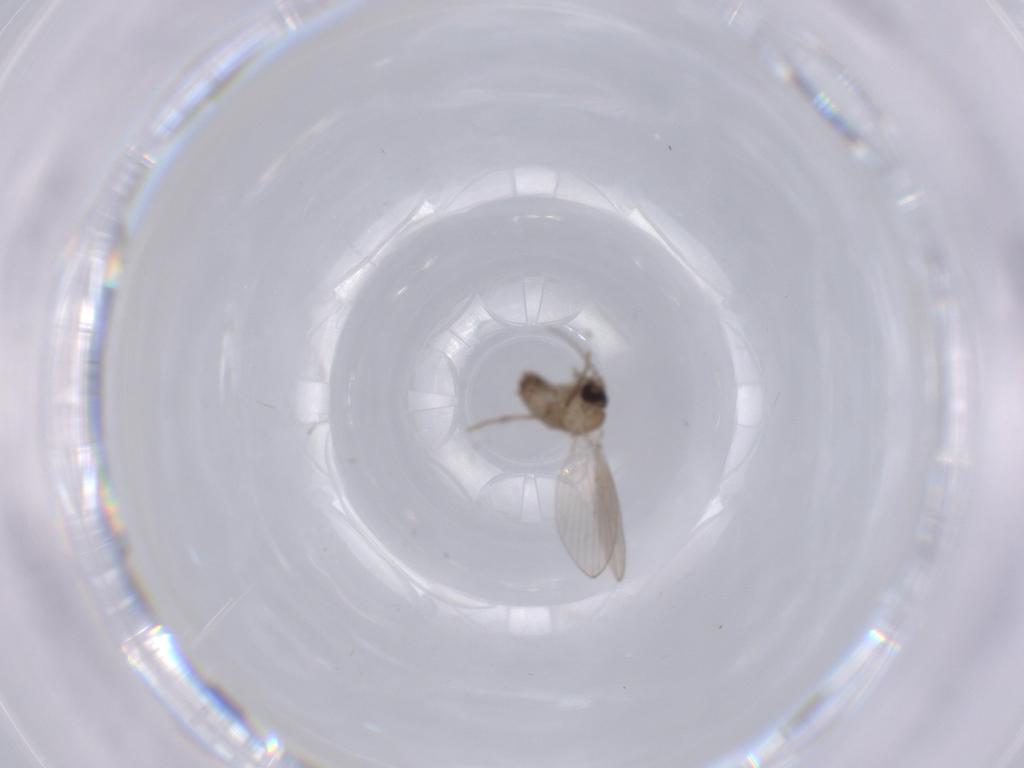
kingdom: Animalia
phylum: Arthropoda
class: Insecta
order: Diptera
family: Psychodidae
